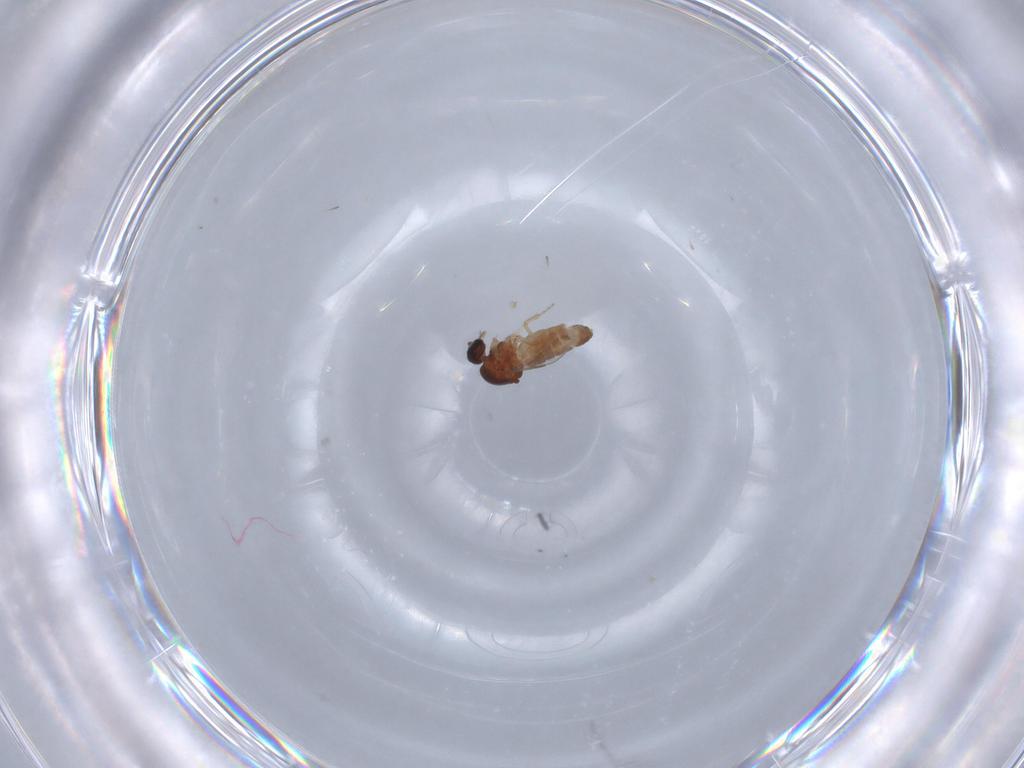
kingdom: Animalia
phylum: Arthropoda
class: Insecta
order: Diptera
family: Ceratopogonidae
